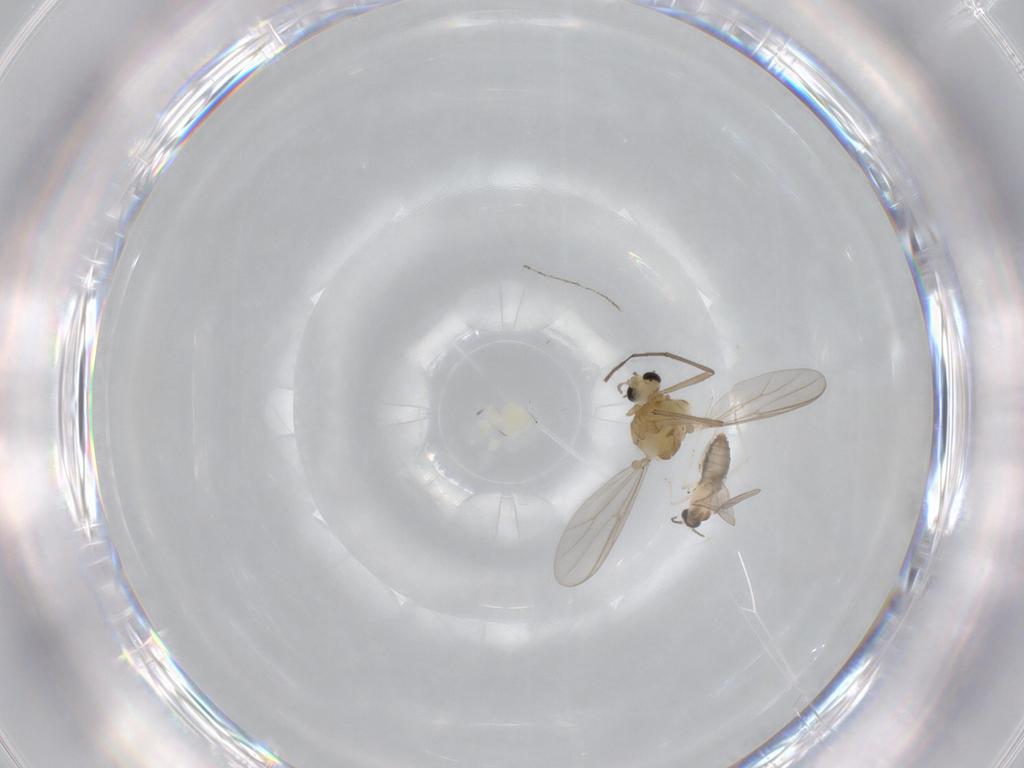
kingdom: Animalia
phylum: Arthropoda
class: Insecta
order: Diptera
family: Chironomidae
